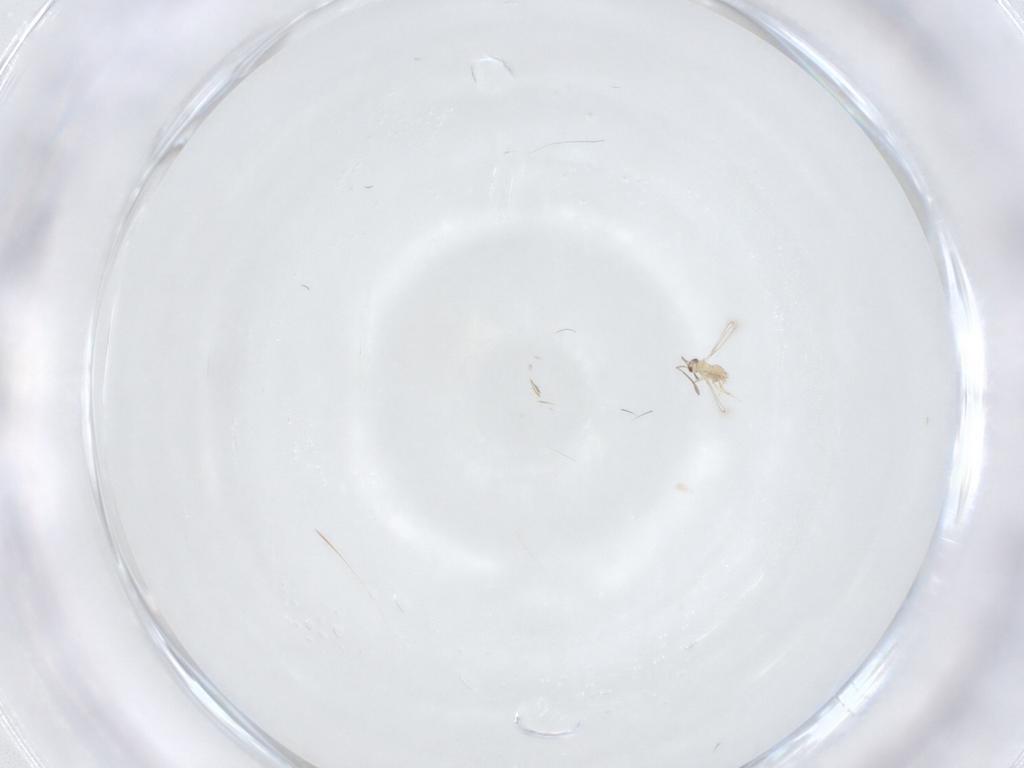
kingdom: Animalia
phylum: Arthropoda
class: Insecta
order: Hymenoptera
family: Mymaridae
